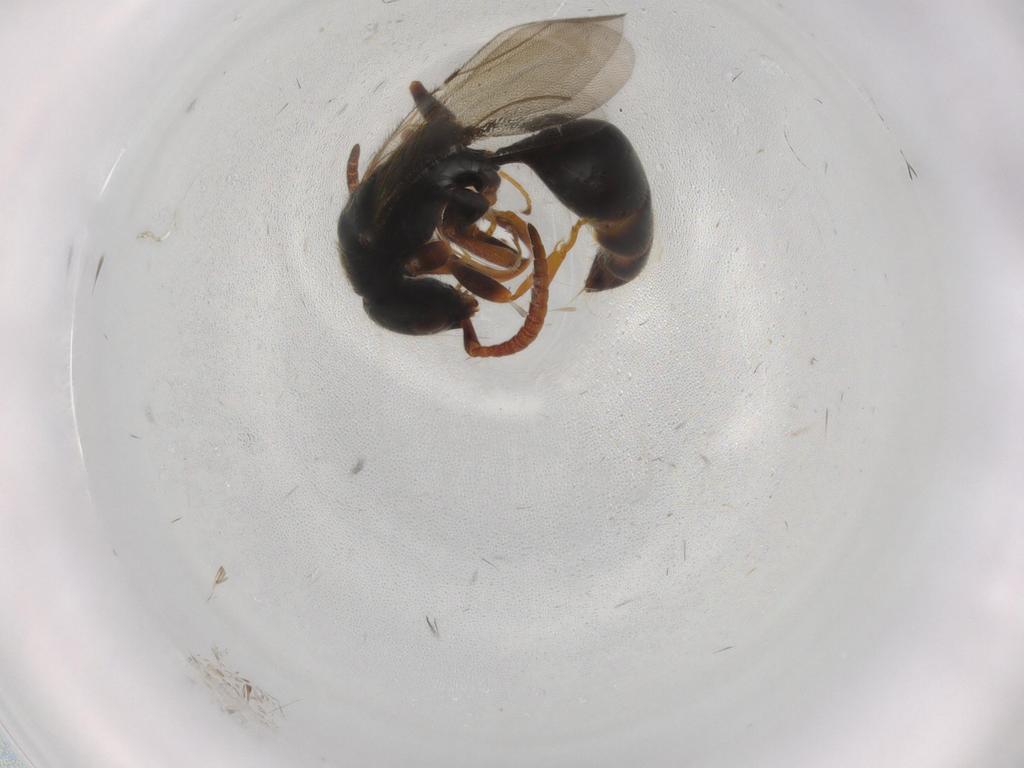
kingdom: Animalia
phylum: Arthropoda
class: Insecta
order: Hymenoptera
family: Bethylidae
